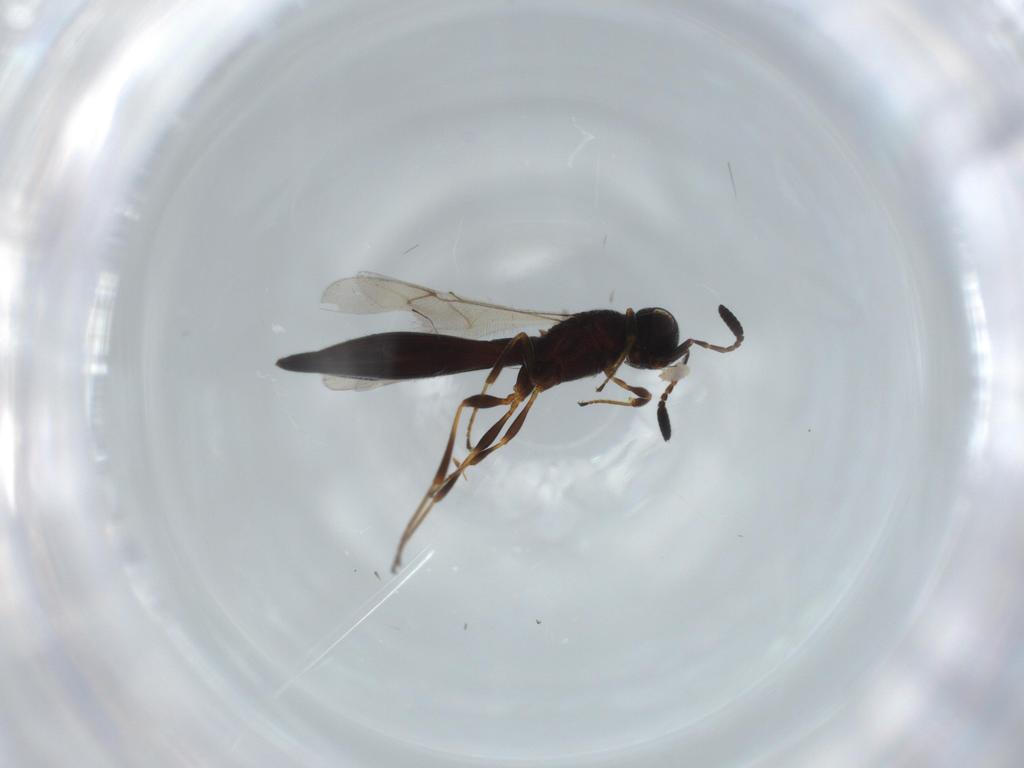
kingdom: Animalia
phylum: Arthropoda
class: Insecta
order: Hymenoptera
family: Scelionidae
